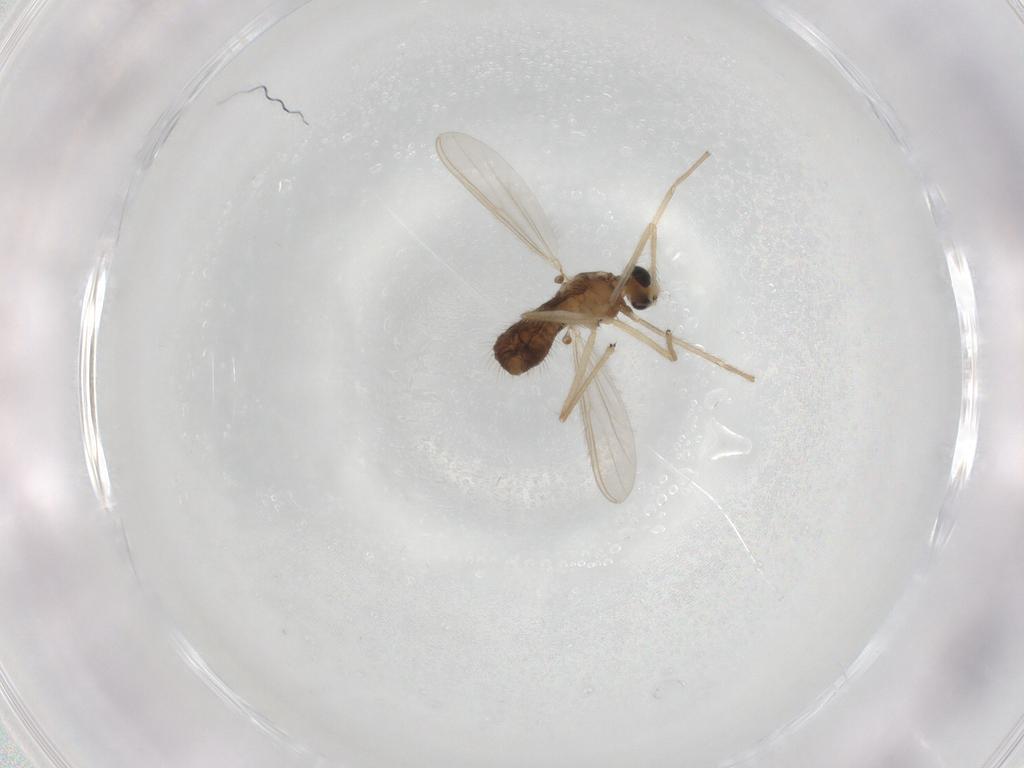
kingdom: Animalia
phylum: Arthropoda
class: Insecta
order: Diptera
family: Chironomidae
